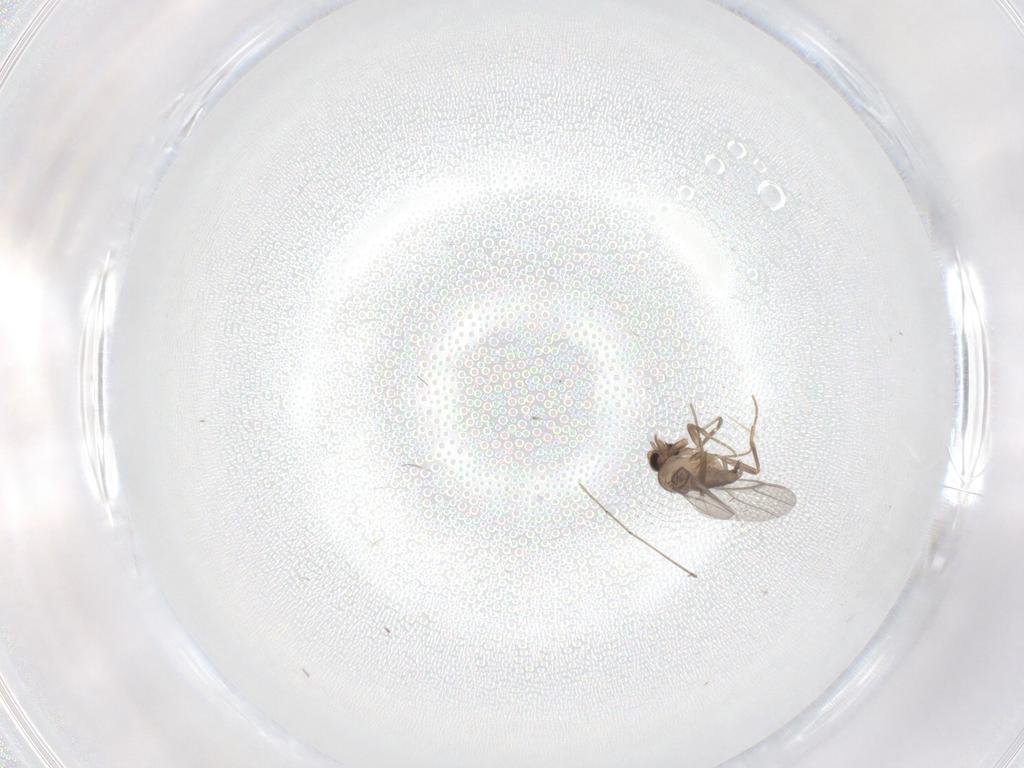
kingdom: Animalia
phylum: Arthropoda
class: Insecta
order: Diptera
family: Cecidomyiidae
